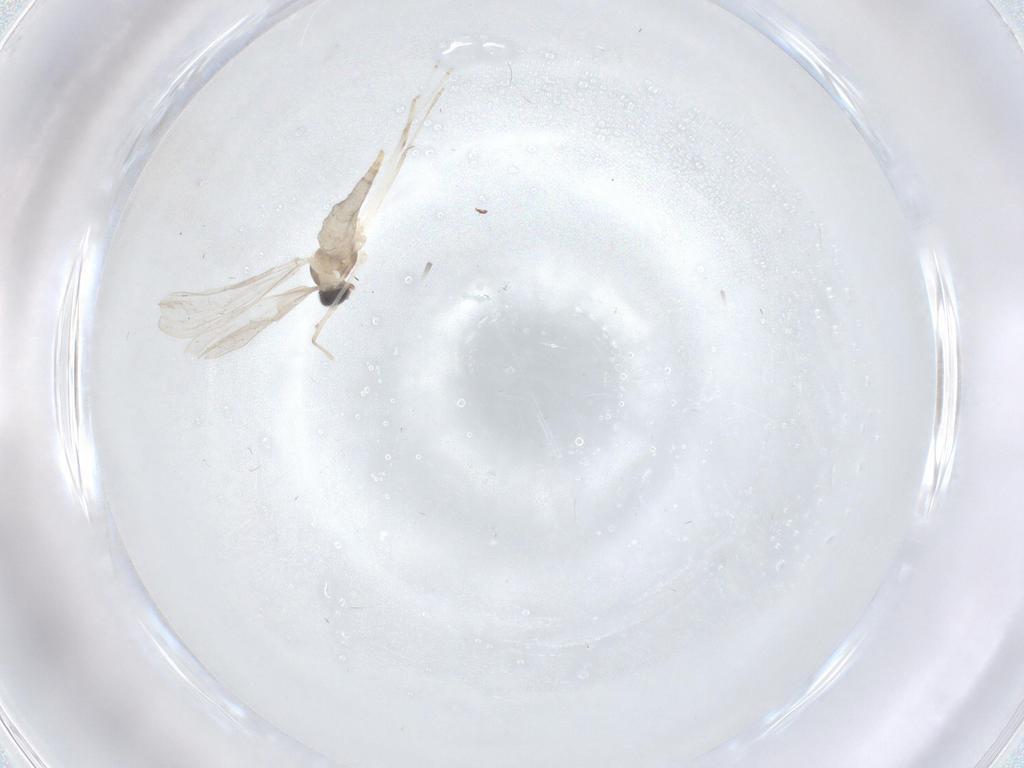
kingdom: Animalia
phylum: Arthropoda
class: Insecta
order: Diptera
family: Cecidomyiidae
